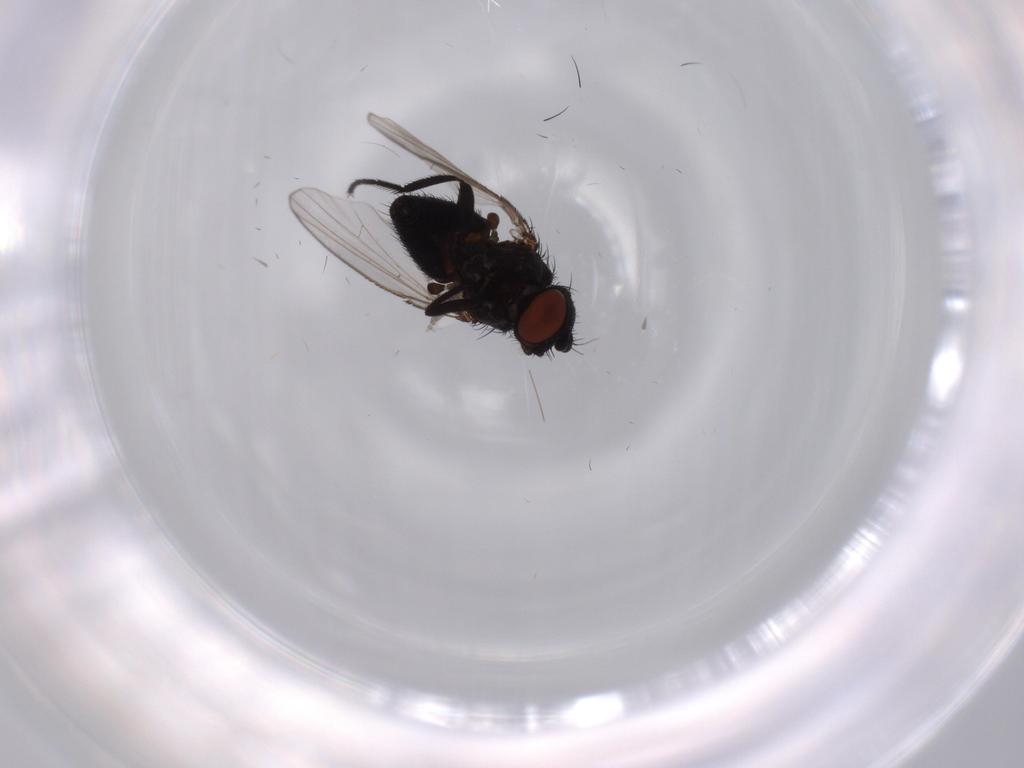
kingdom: Animalia
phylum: Arthropoda
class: Insecta
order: Diptera
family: Milichiidae
